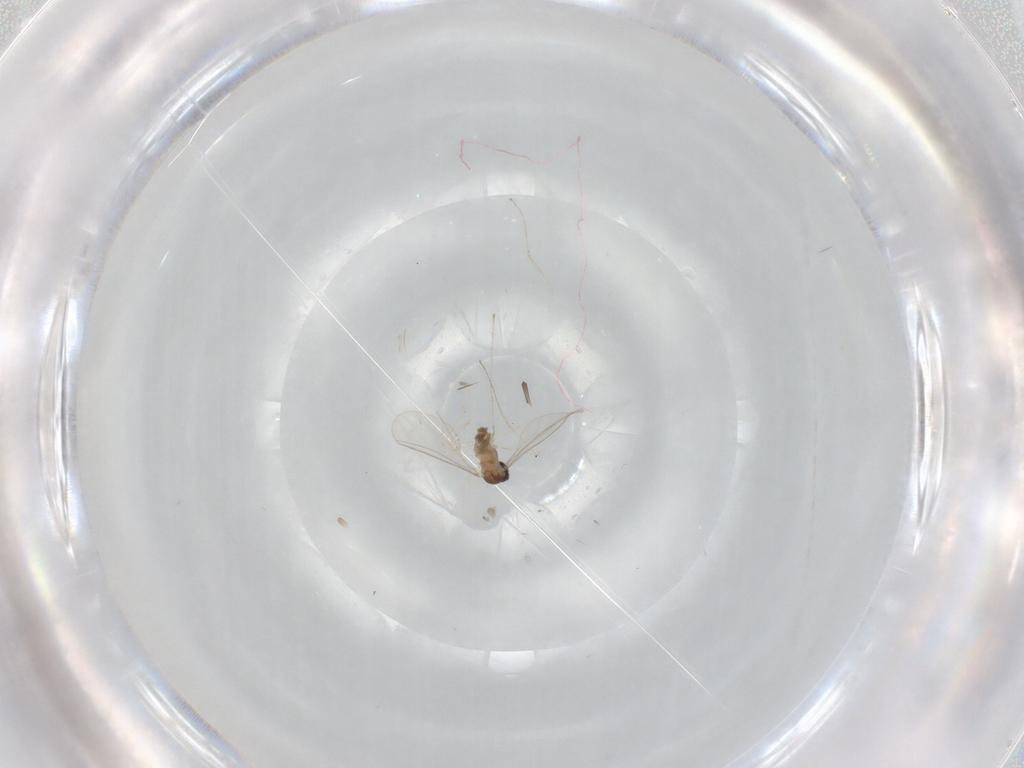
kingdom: Animalia
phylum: Arthropoda
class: Insecta
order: Diptera
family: Cecidomyiidae
